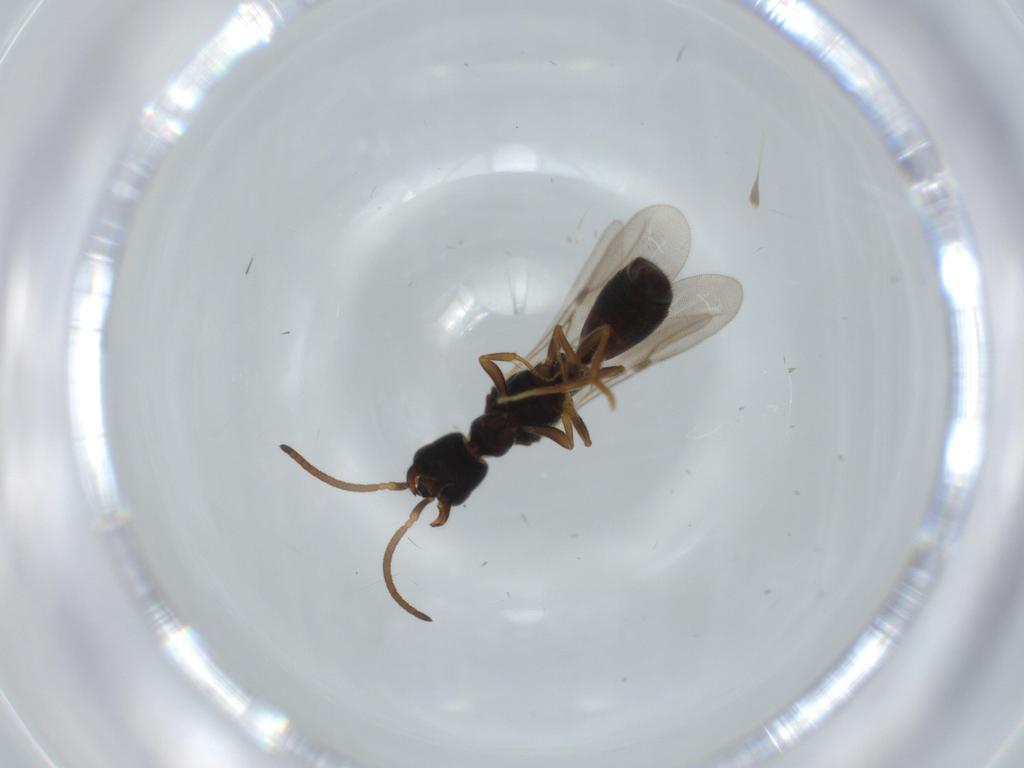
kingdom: Animalia
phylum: Arthropoda
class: Insecta
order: Hymenoptera
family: Bethylidae
